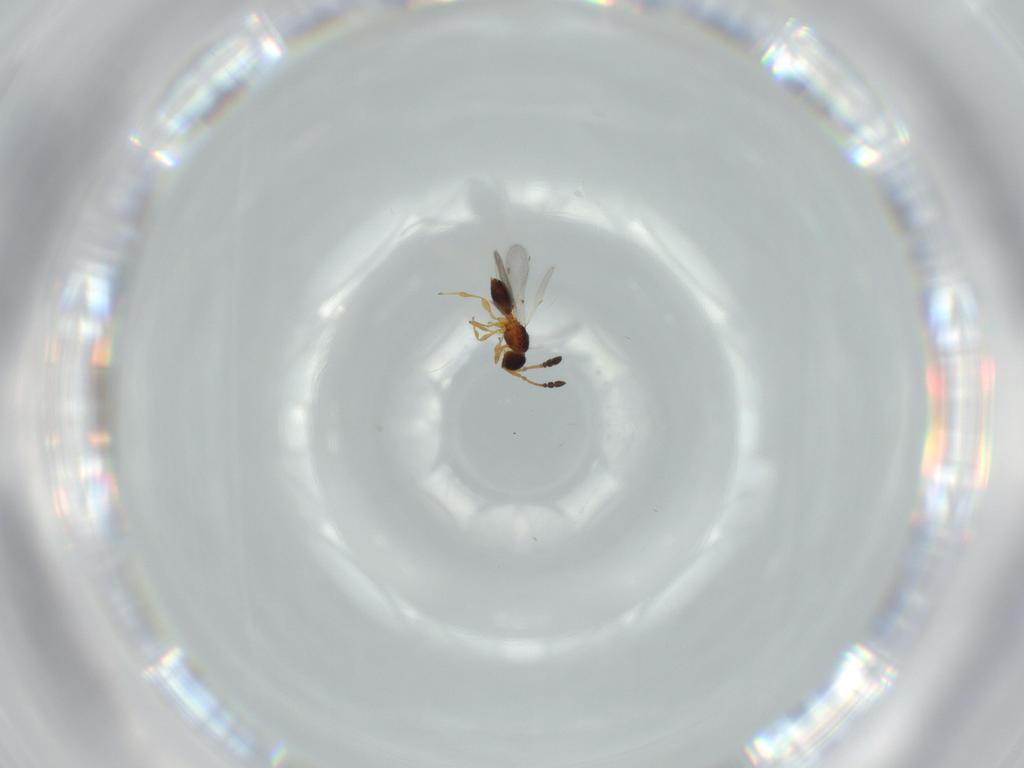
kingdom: Animalia
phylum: Arthropoda
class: Insecta
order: Hymenoptera
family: Diapriidae
